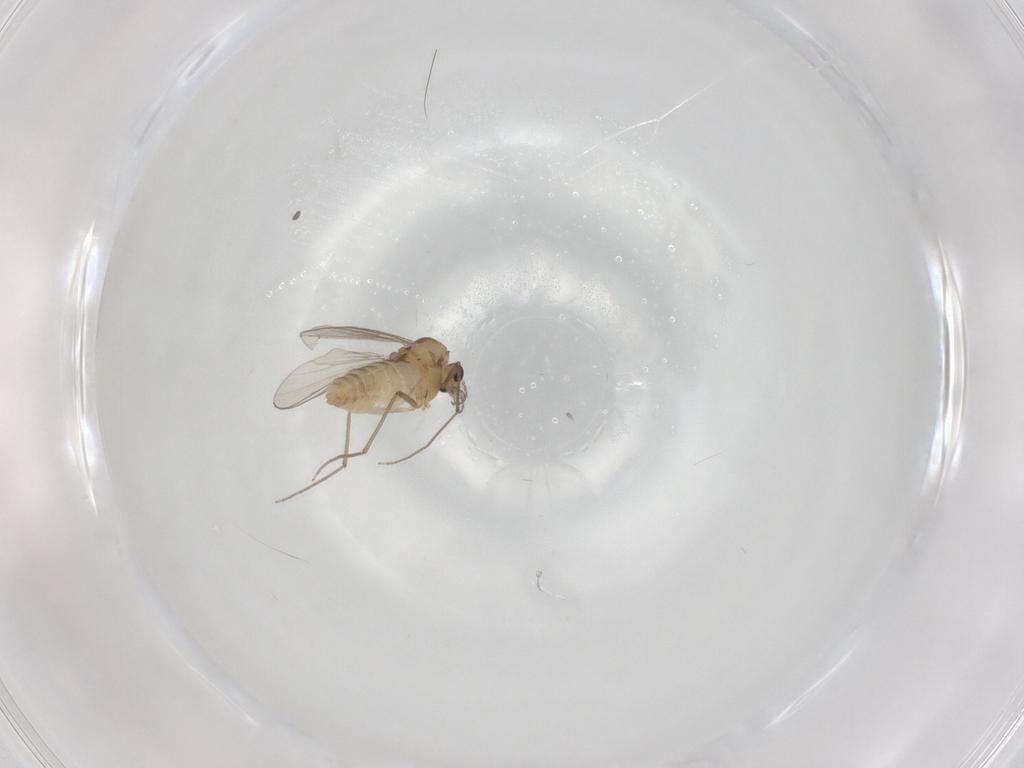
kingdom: Animalia
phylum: Arthropoda
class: Insecta
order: Diptera
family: Chironomidae
